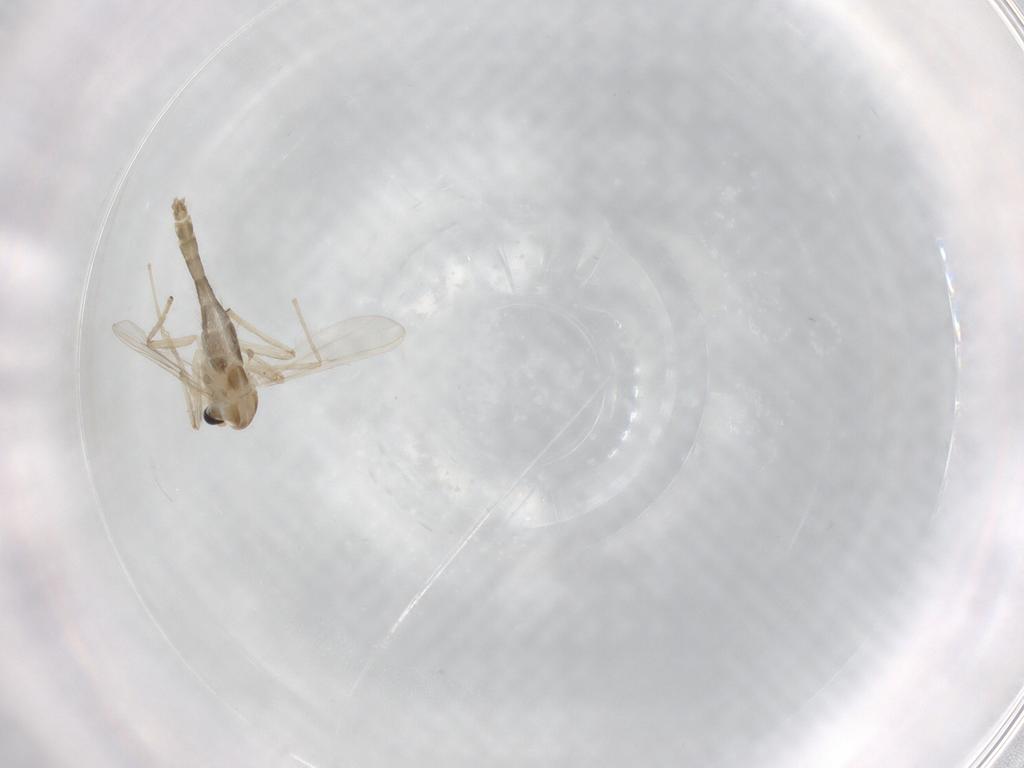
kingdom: Animalia
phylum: Arthropoda
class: Insecta
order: Diptera
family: Chironomidae
